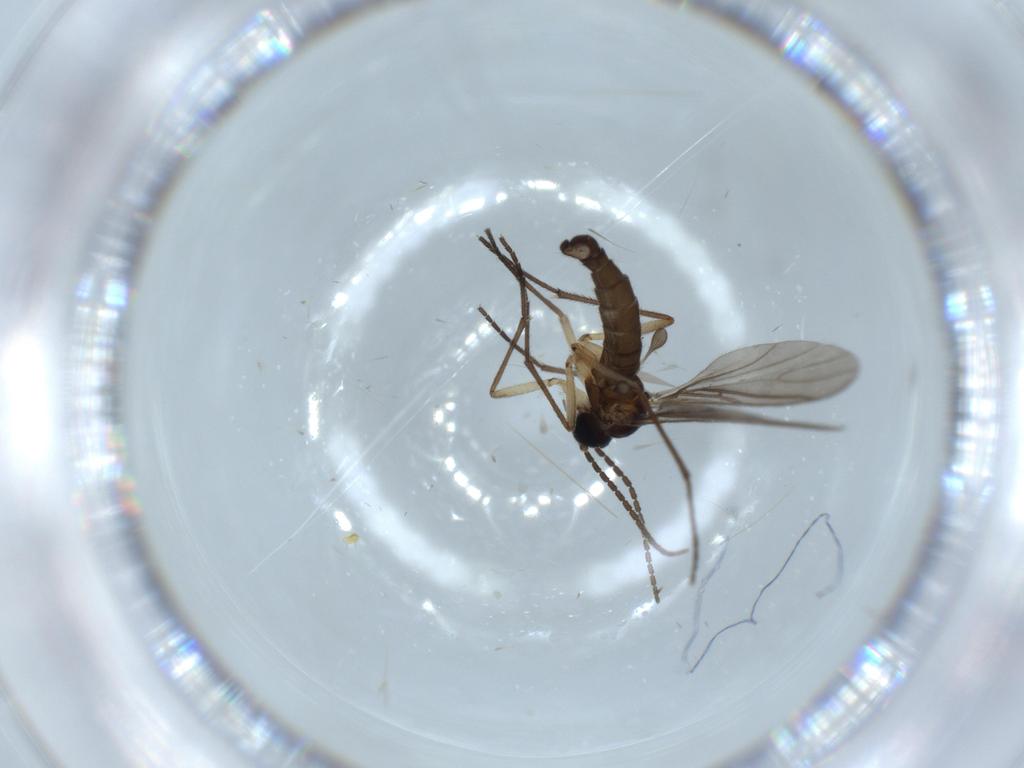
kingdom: Animalia
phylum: Arthropoda
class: Insecta
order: Diptera
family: Sciaridae
